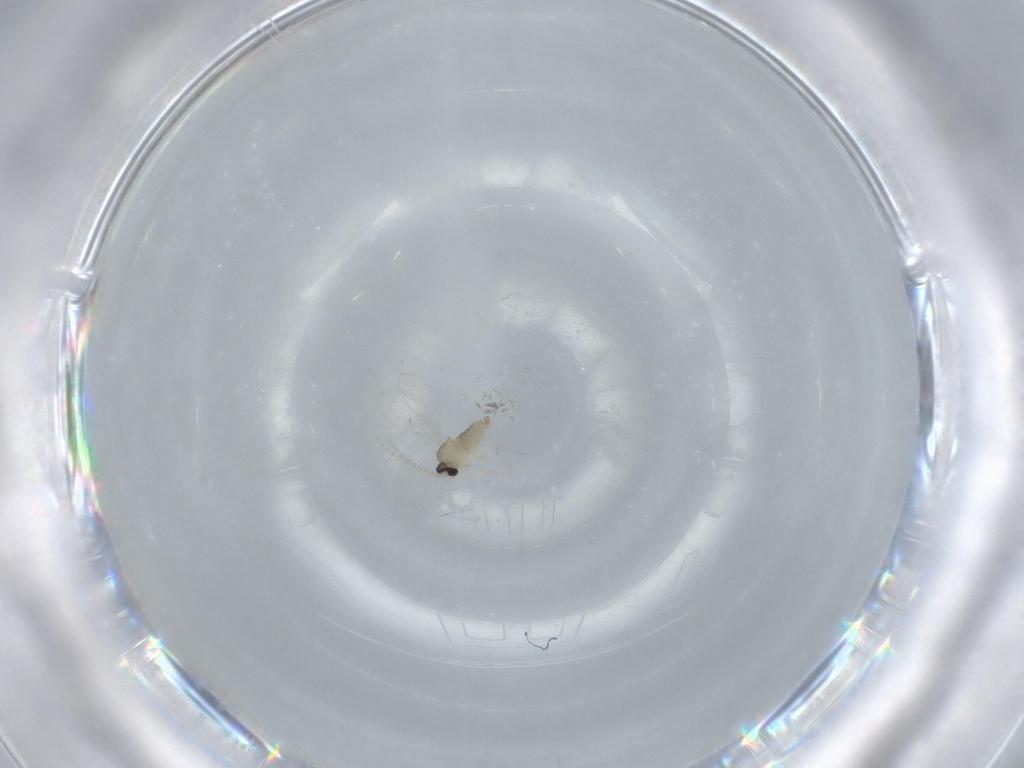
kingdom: Animalia
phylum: Arthropoda
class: Insecta
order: Diptera
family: Cecidomyiidae
